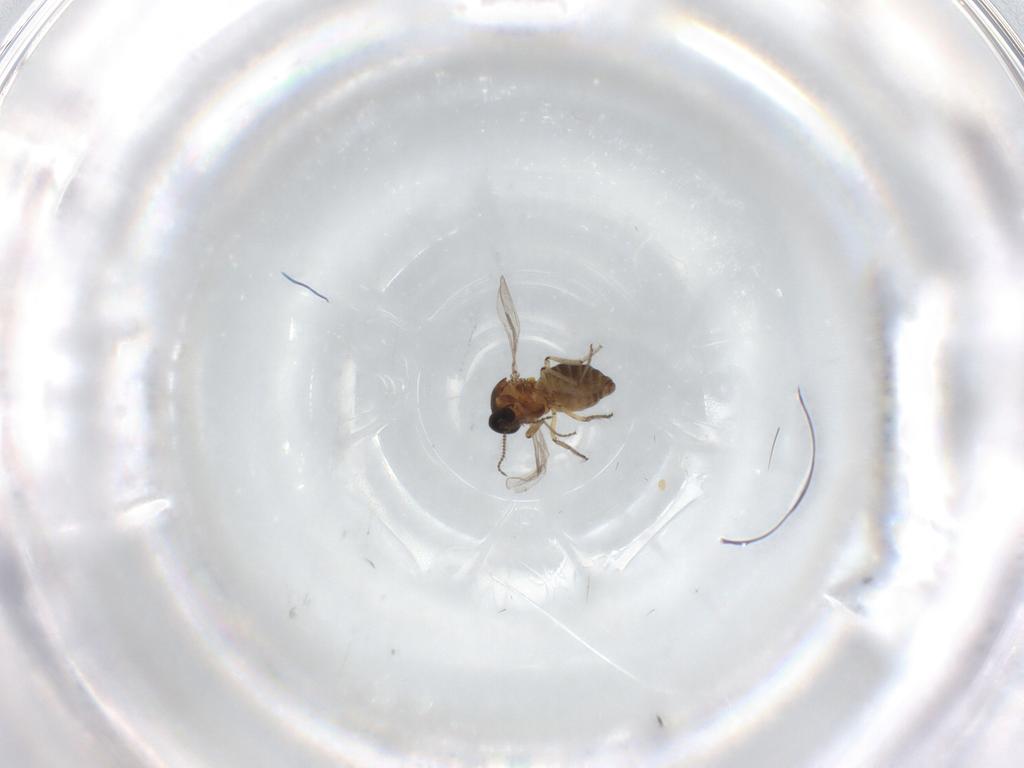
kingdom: Animalia
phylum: Arthropoda
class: Insecta
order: Diptera
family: Ceratopogonidae
